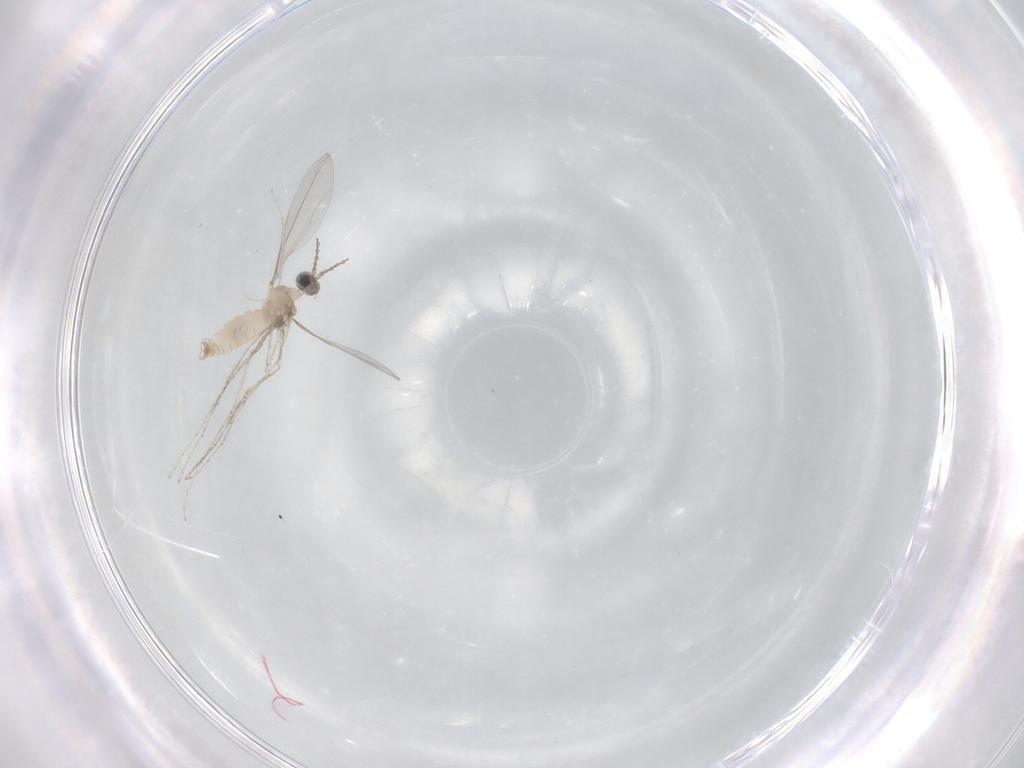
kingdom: Animalia
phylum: Arthropoda
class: Insecta
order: Diptera
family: Cecidomyiidae
